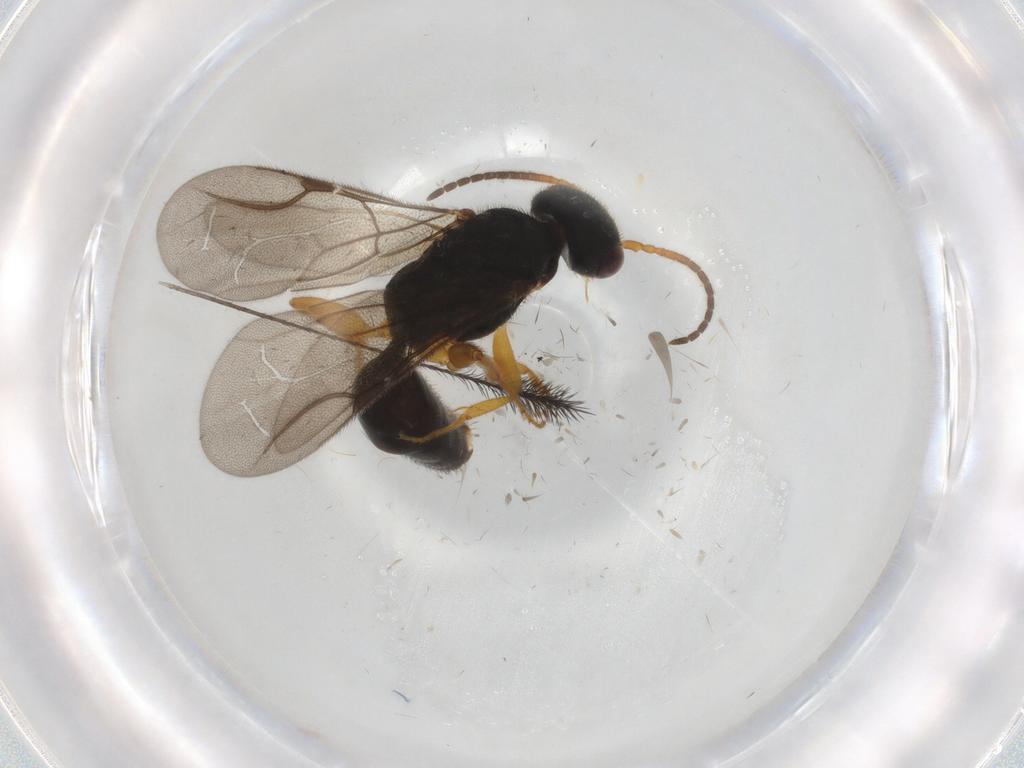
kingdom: Animalia
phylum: Arthropoda
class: Insecta
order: Hymenoptera
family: Bethylidae
